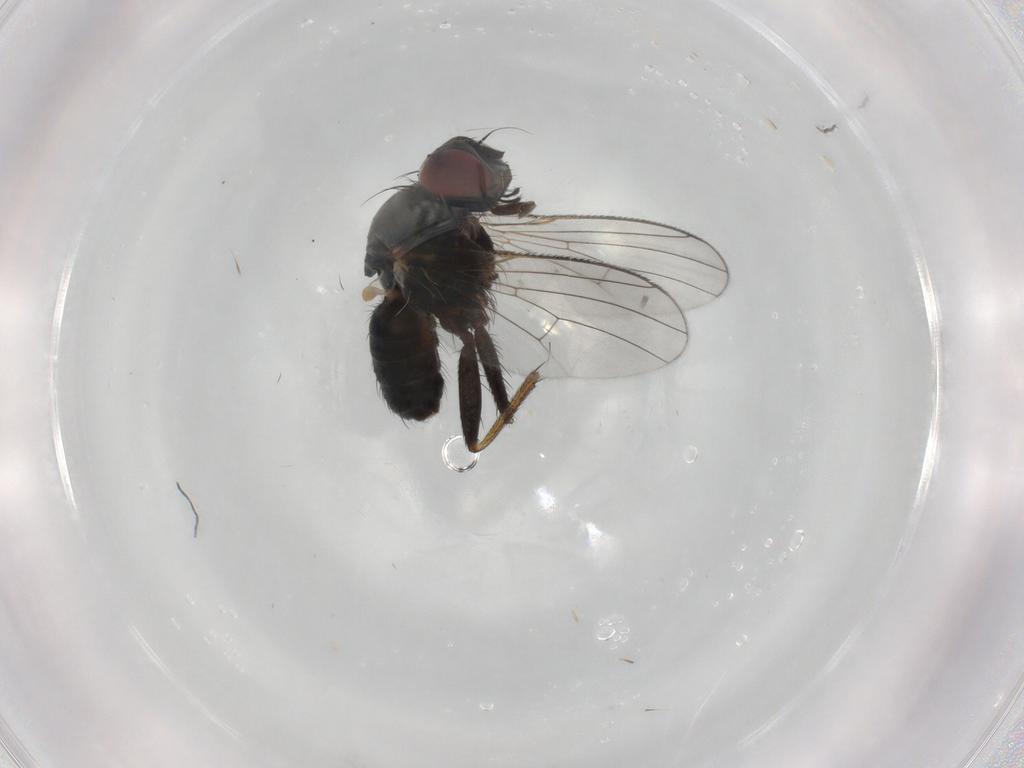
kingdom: Animalia
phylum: Arthropoda
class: Insecta
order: Diptera
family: Muscidae
